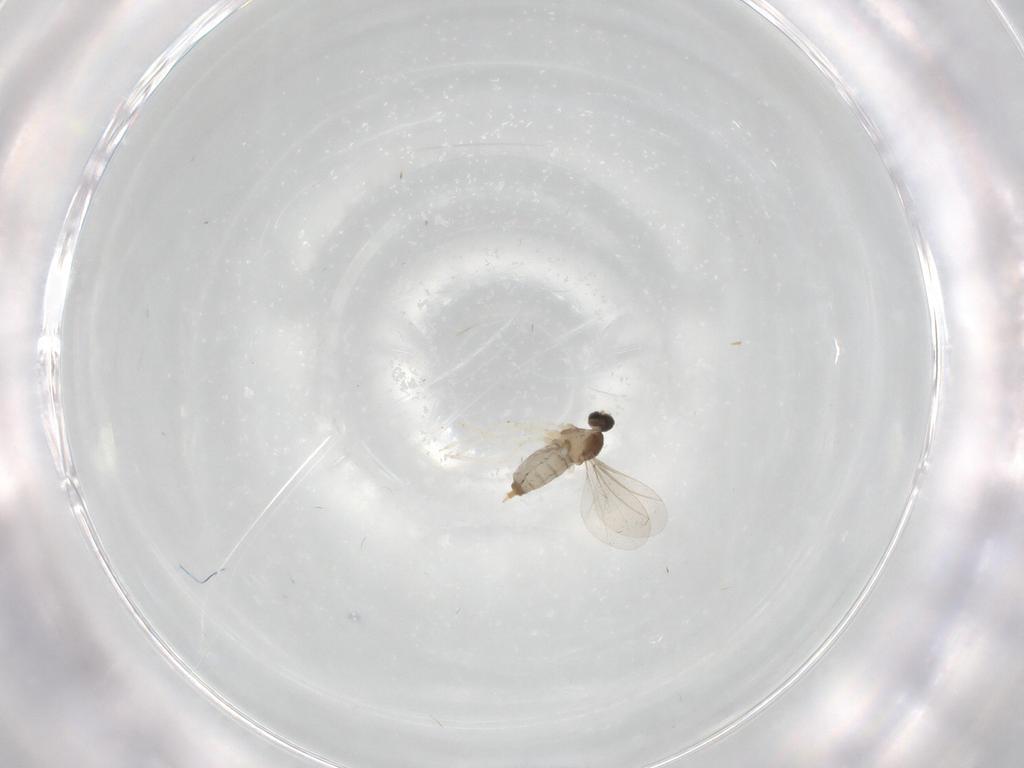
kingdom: Animalia
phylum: Arthropoda
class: Insecta
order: Diptera
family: Cecidomyiidae
